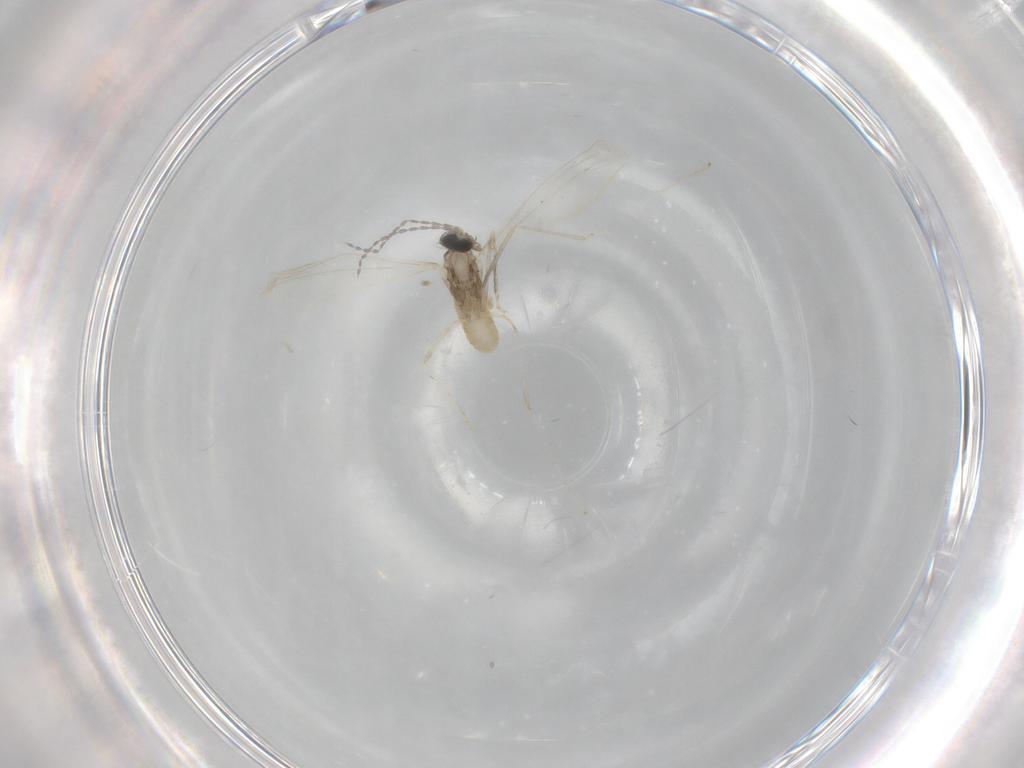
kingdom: Animalia
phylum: Arthropoda
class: Insecta
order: Diptera
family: Cecidomyiidae
